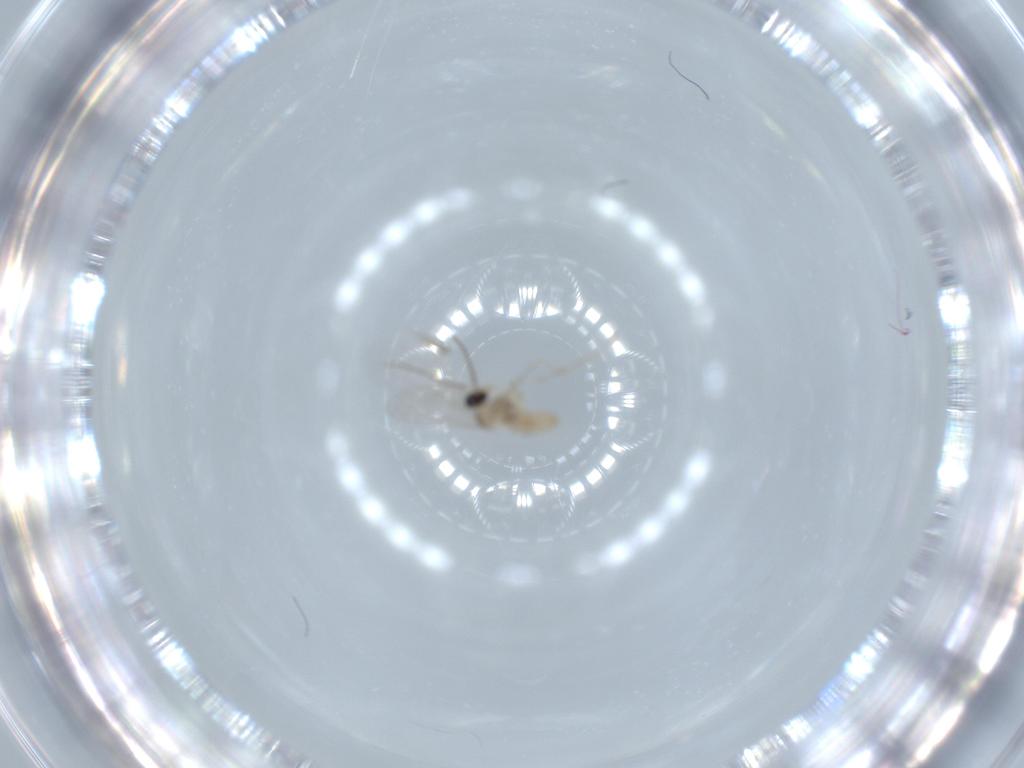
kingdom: Animalia
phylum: Arthropoda
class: Insecta
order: Diptera
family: Cecidomyiidae
